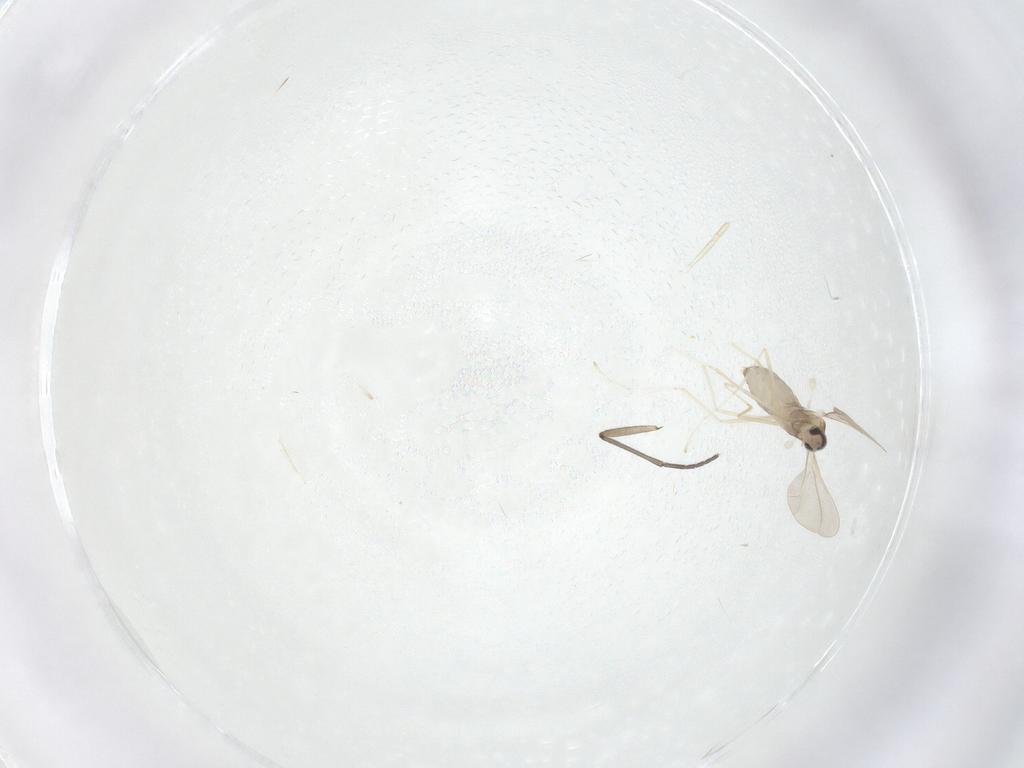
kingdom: Animalia
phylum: Arthropoda
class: Insecta
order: Diptera
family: Cecidomyiidae
